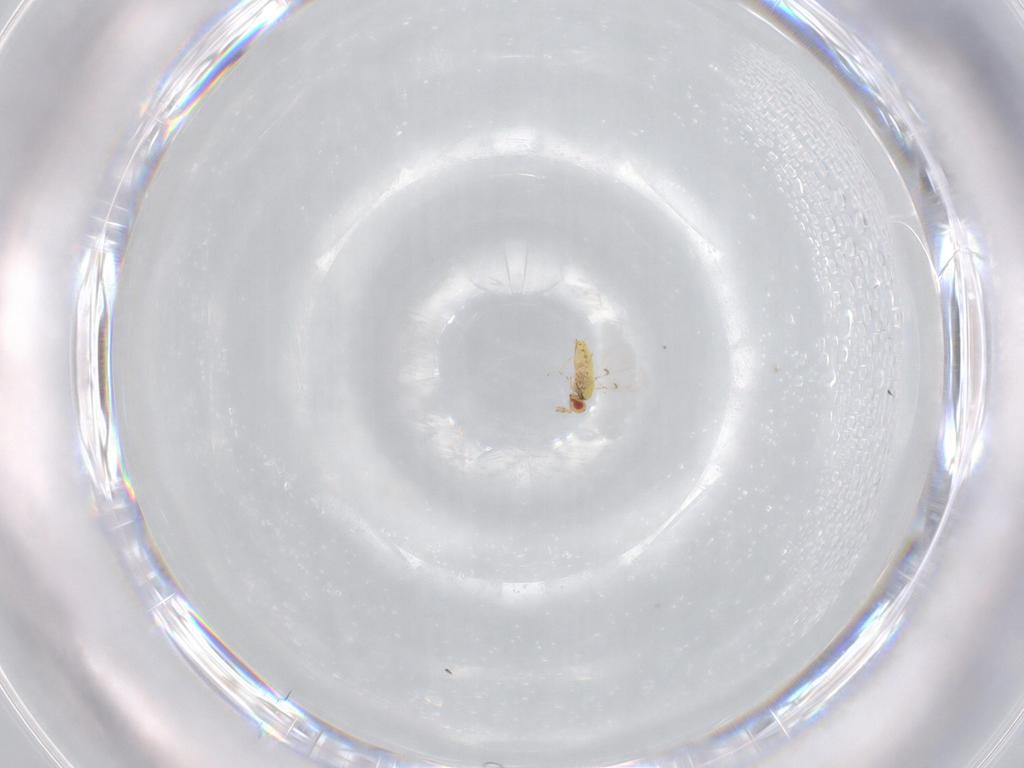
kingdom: Animalia
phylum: Arthropoda
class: Insecta
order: Hymenoptera
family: Trichogrammatidae
